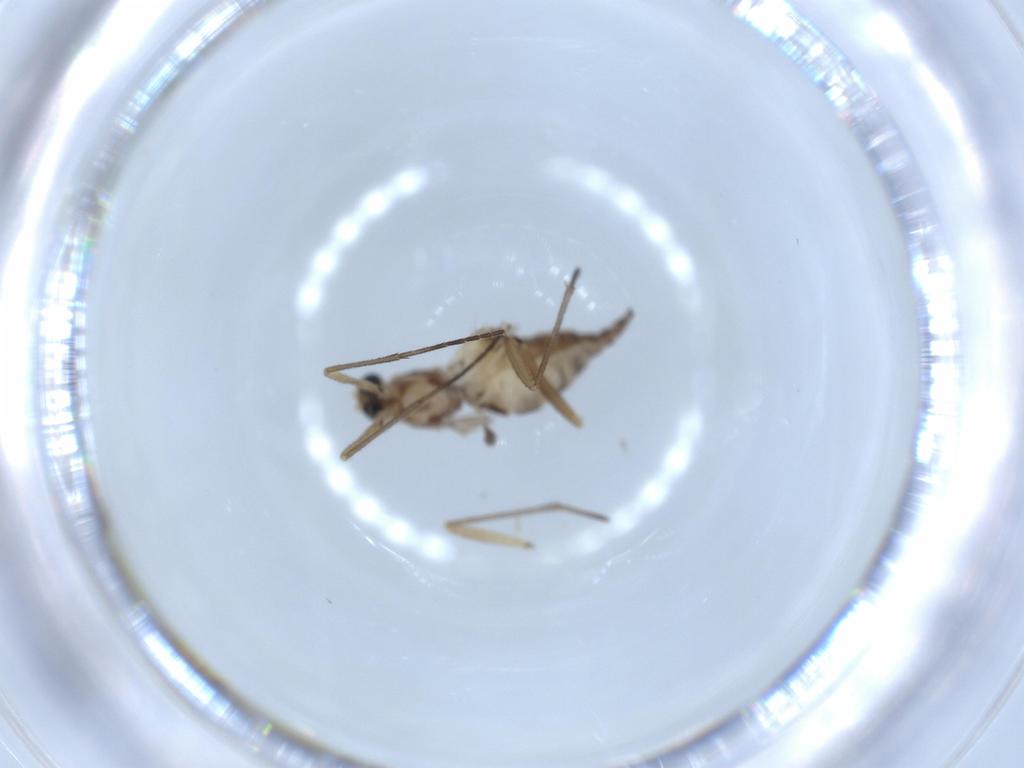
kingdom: Animalia
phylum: Arthropoda
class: Insecta
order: Diptera
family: Sciaridae
